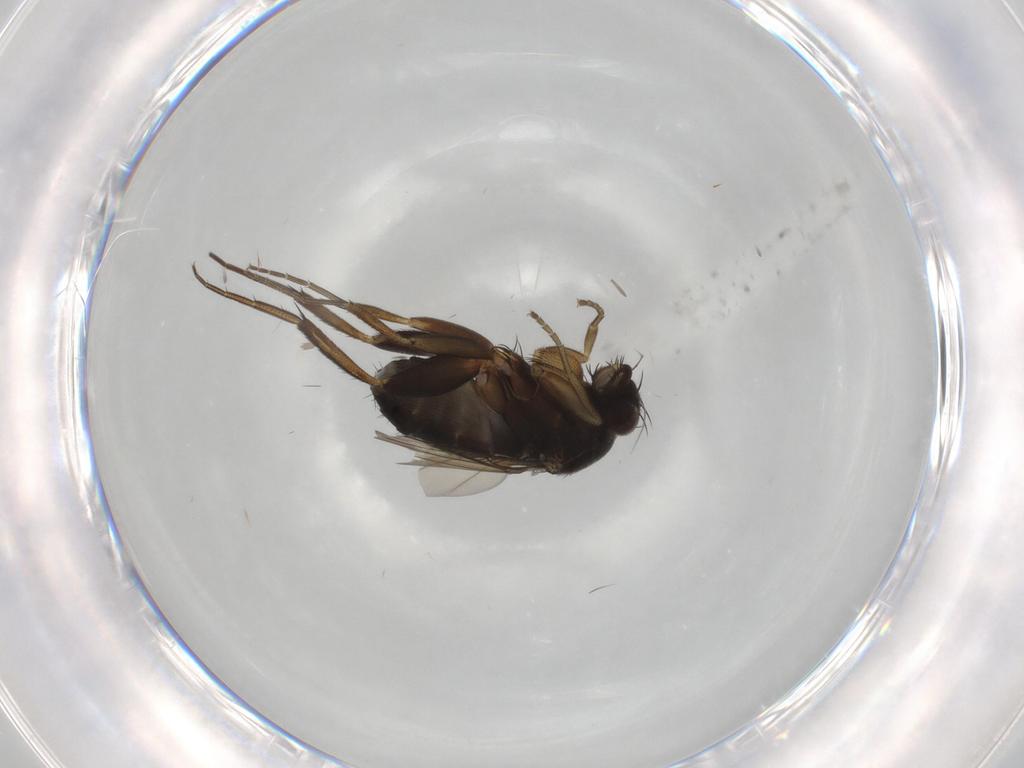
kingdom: Animalia
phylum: Arthropoda
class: Insecta
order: Diptera
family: Phoridae
